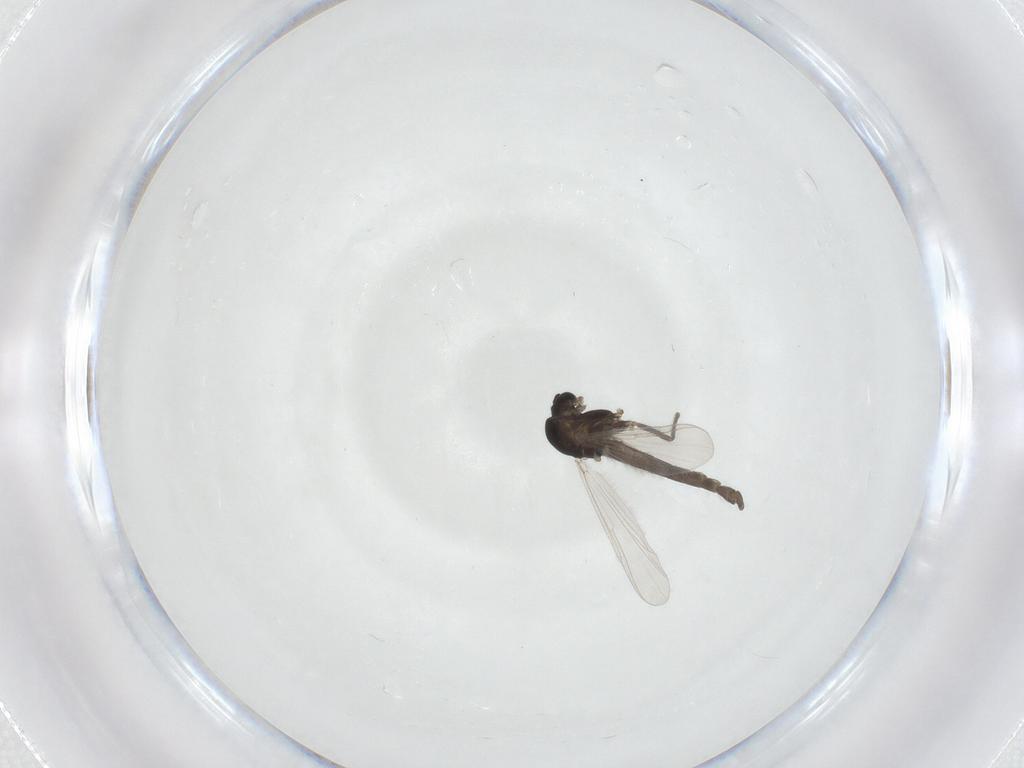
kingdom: Animalia
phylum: Arthropoda
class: Insecta
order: Diptera
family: Chironomidae
